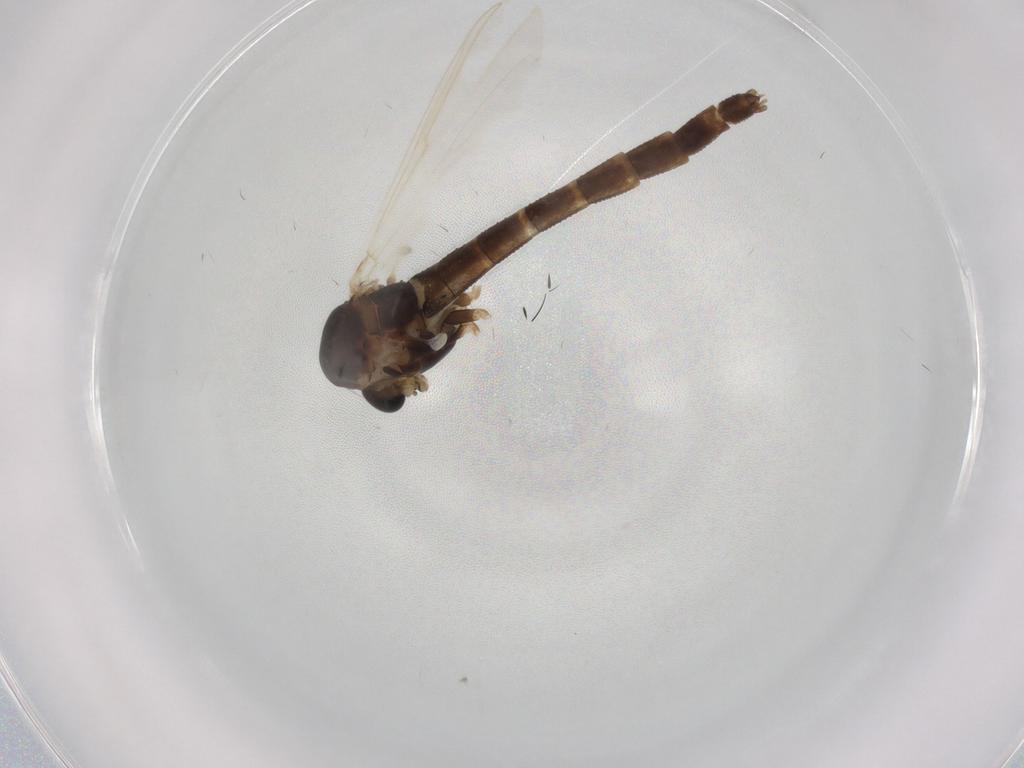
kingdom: Animalia
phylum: Arthropoda
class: Insecta
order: Diptera
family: Chironomidae
